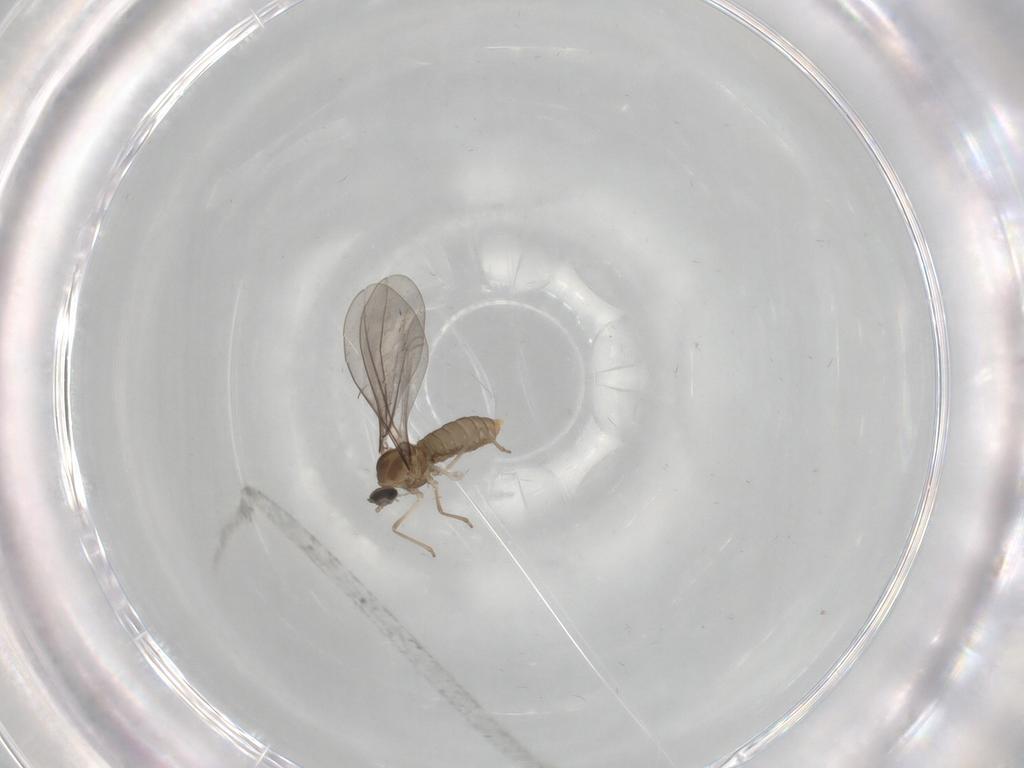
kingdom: Animalia
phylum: Arthropoda
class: Insecta
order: Diptera
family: Cecidomyiidae
